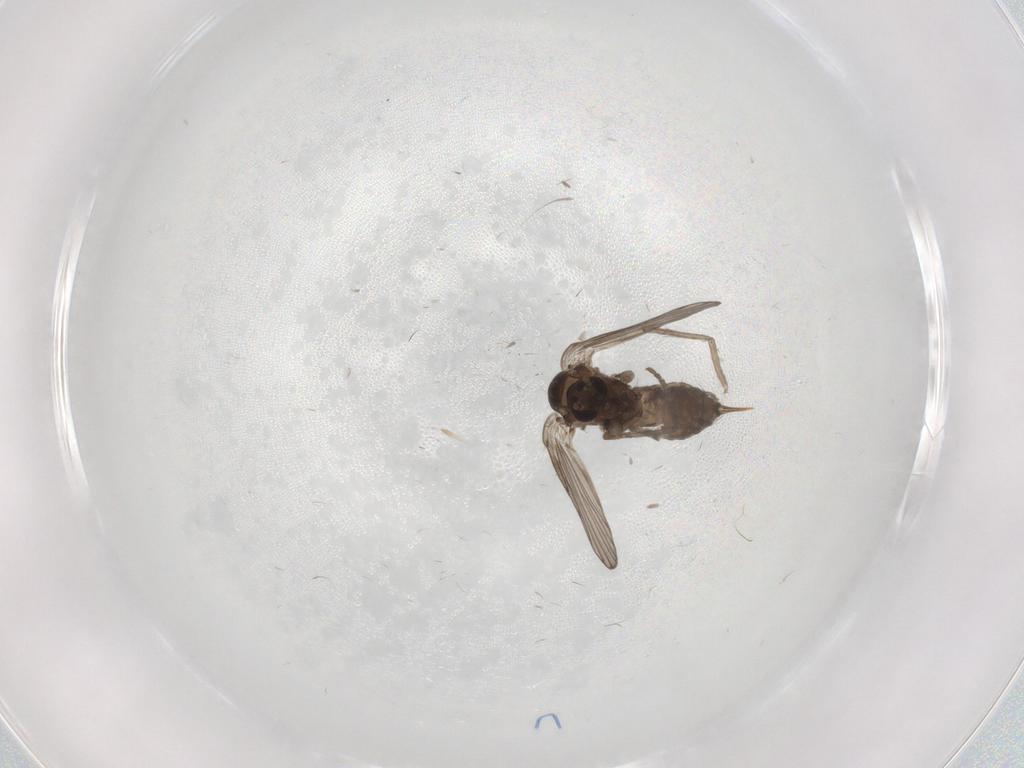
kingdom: Animalia
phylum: Arthropoda
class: Insecta
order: Diptera
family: Psychodidae
